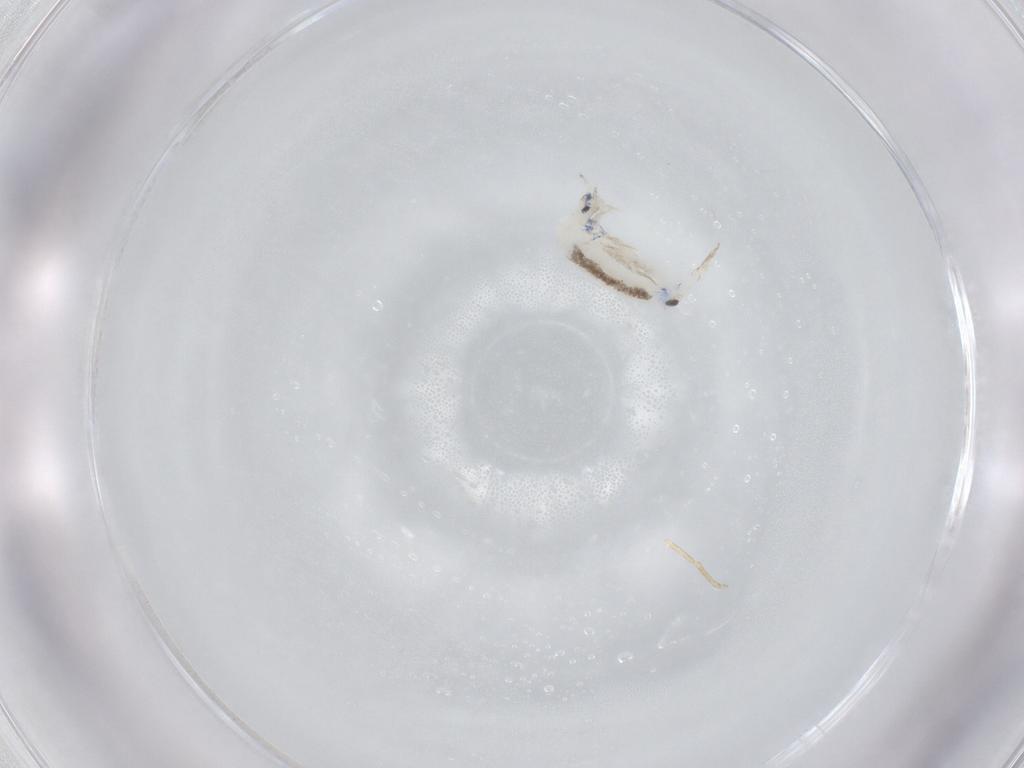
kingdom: Animalia
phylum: Arthropoda
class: Collembola
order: Entomobryomorpha
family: Entomobryidae
